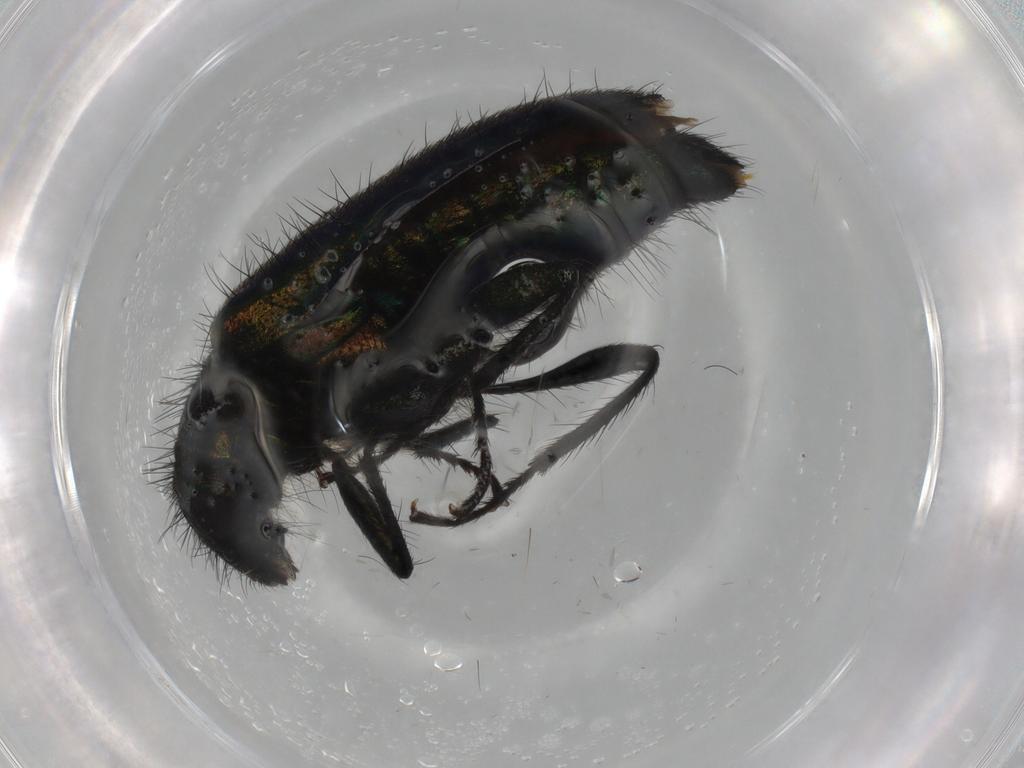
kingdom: Animalia
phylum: Arthropoda
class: Insecta
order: Coleoptera
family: Melyridae
